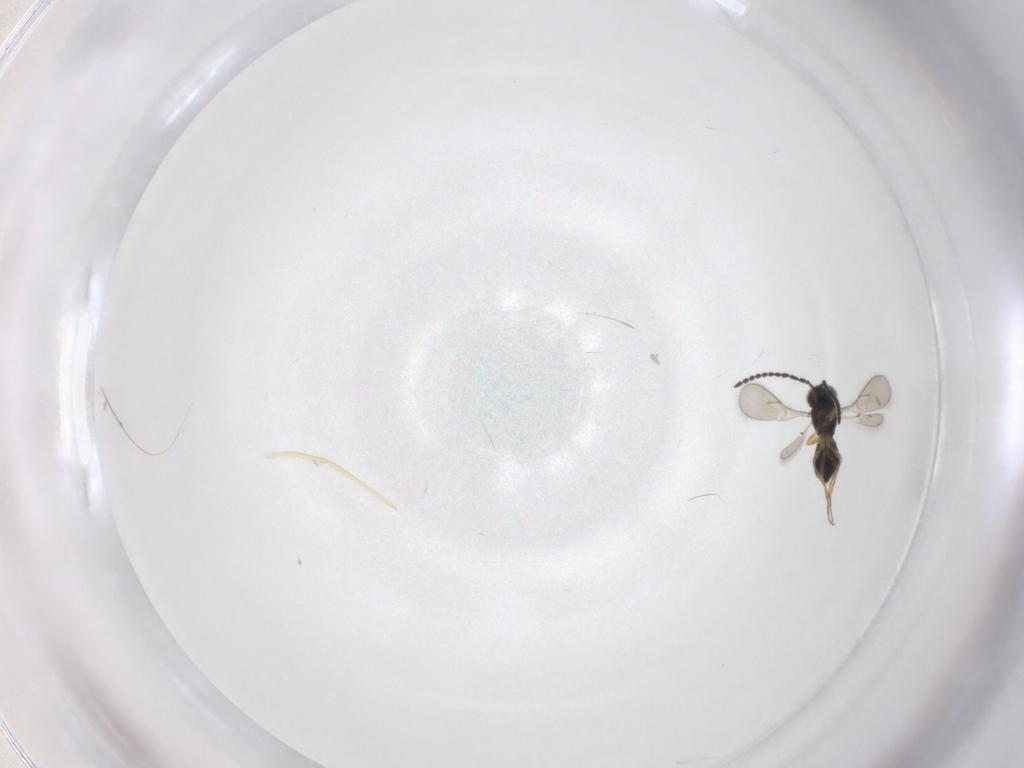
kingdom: Animalia
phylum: Arthropoda
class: Insecta
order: Hymenoptera
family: Scelionidae
